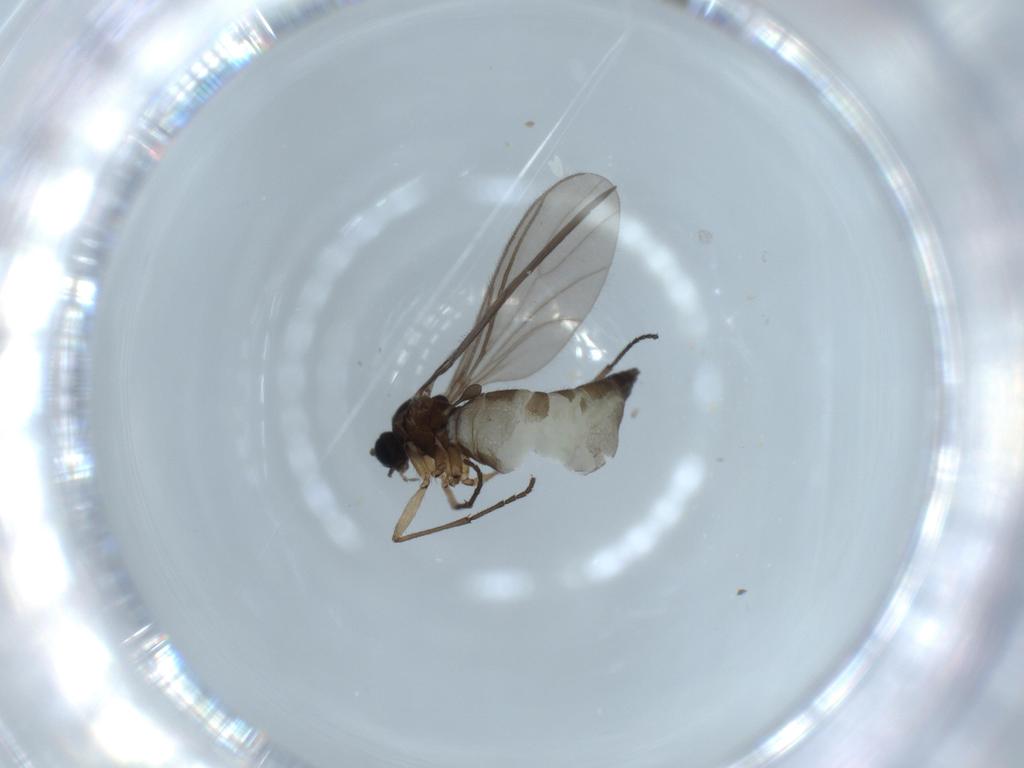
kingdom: Animalia
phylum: Arthropoda
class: Insecta
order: Diptera
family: Sciaridae
